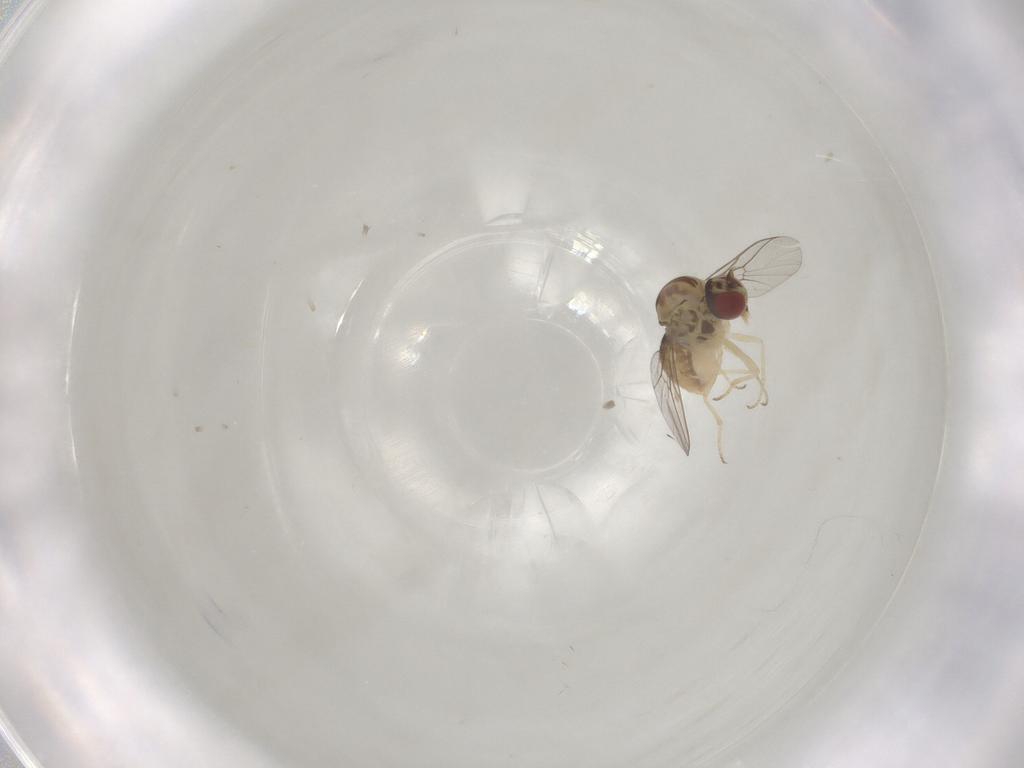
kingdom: Animalia
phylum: Arthropoda
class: Insecta
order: Diptera
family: Bombyliidae
